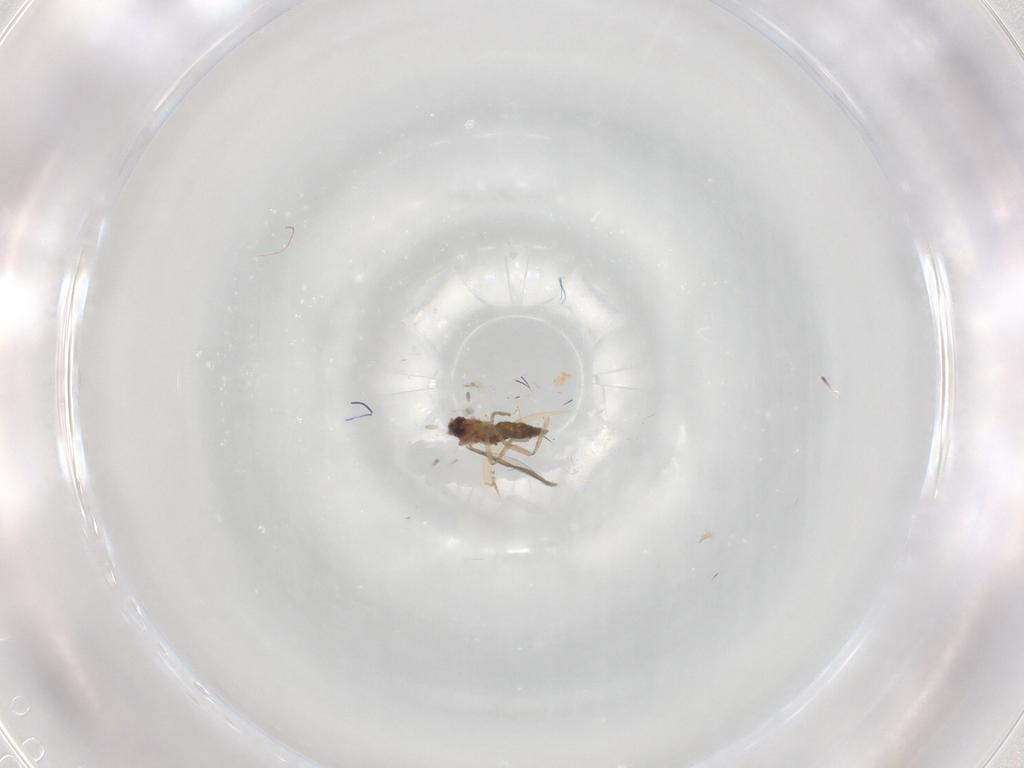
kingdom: Animalia
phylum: Arthropoda
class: Insecta
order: Diptera
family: Cecidomyiidae
